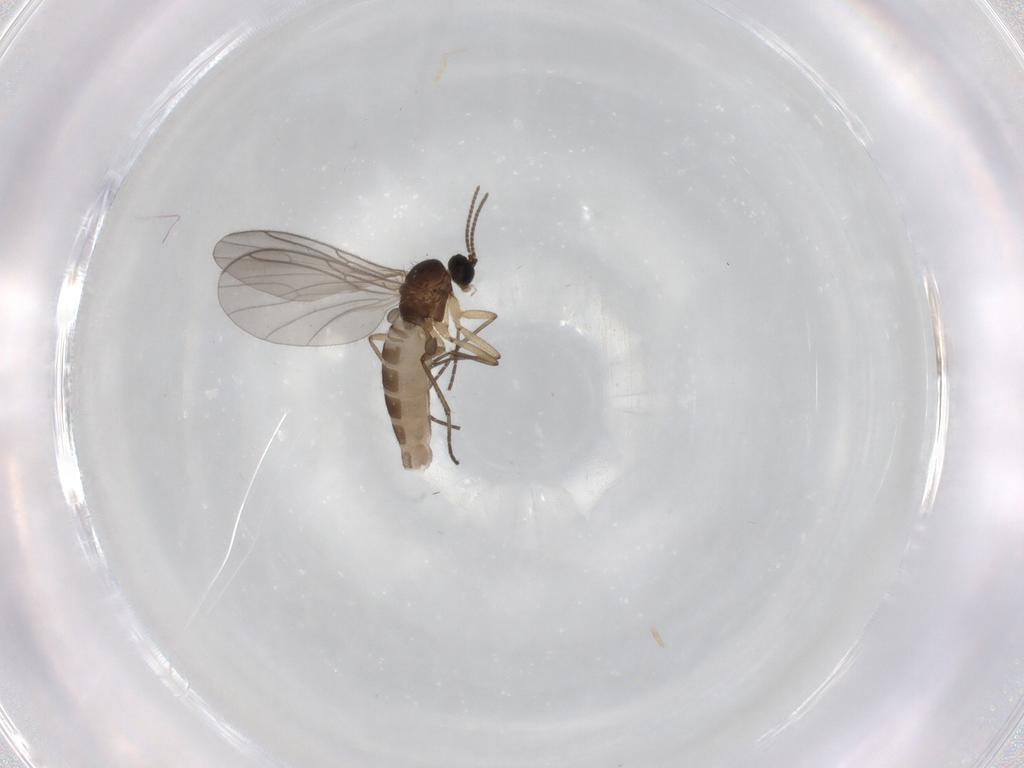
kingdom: Animalia
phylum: Arthropoda
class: Insecta
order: Diptera
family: Sciaridae
